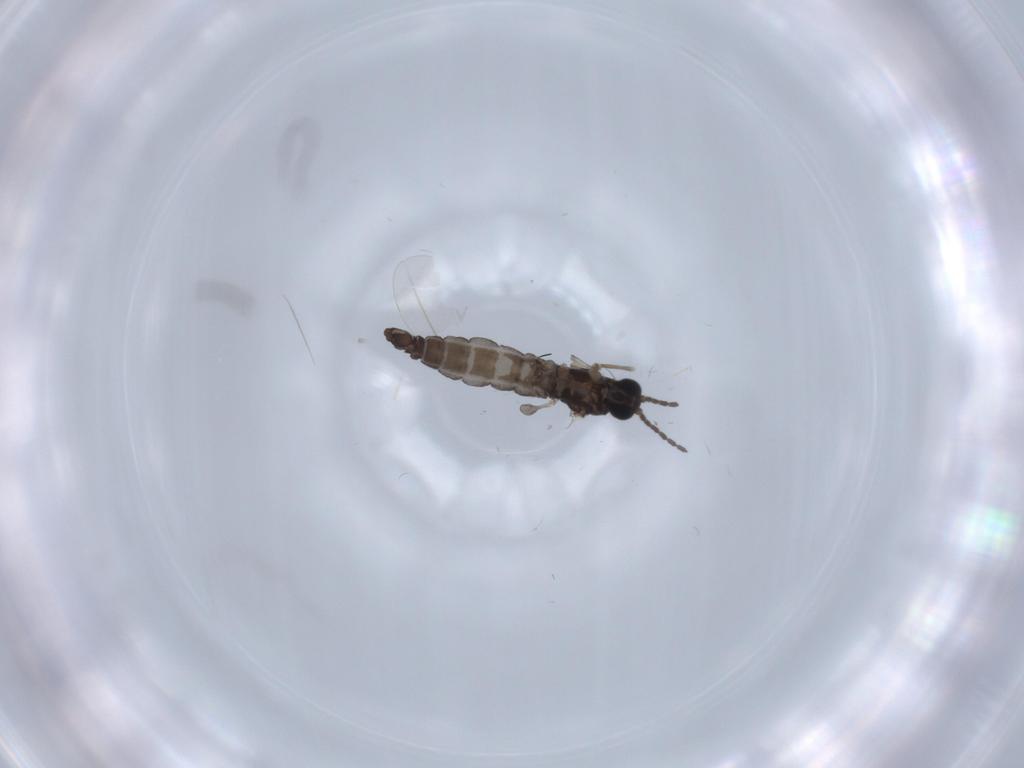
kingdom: Animalia
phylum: Arthropoda
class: Insecta
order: Diptera
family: Sciaridae
